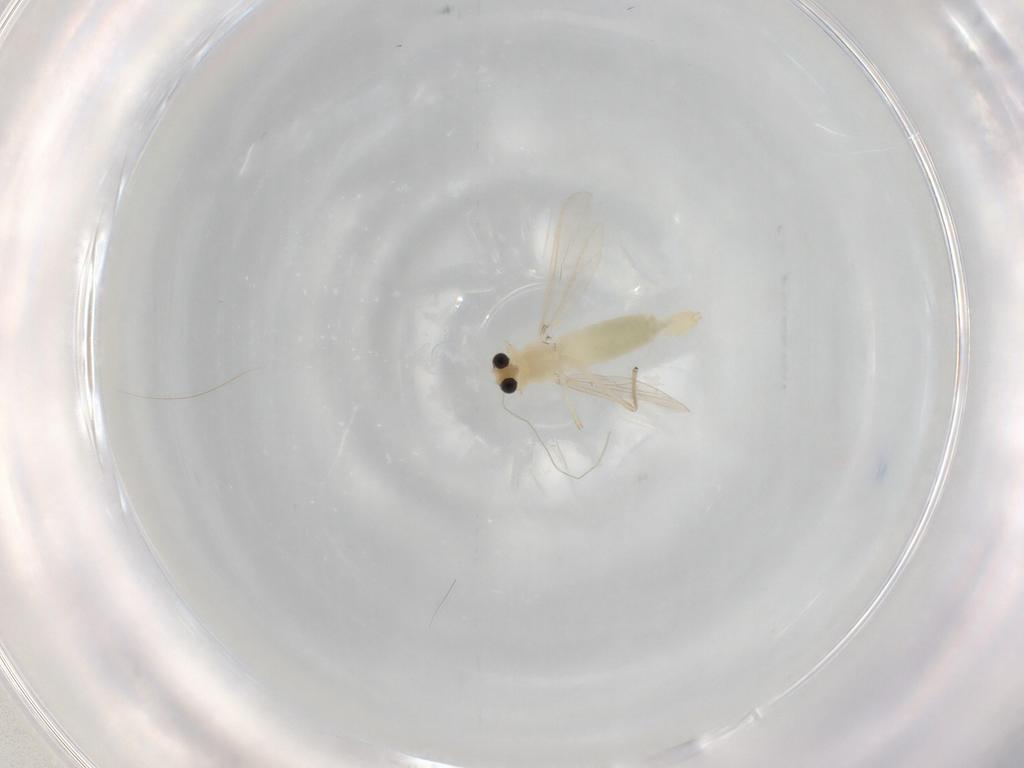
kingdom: Animalia
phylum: Arthropoda
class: Insecta
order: Diptera
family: Chironomidae
